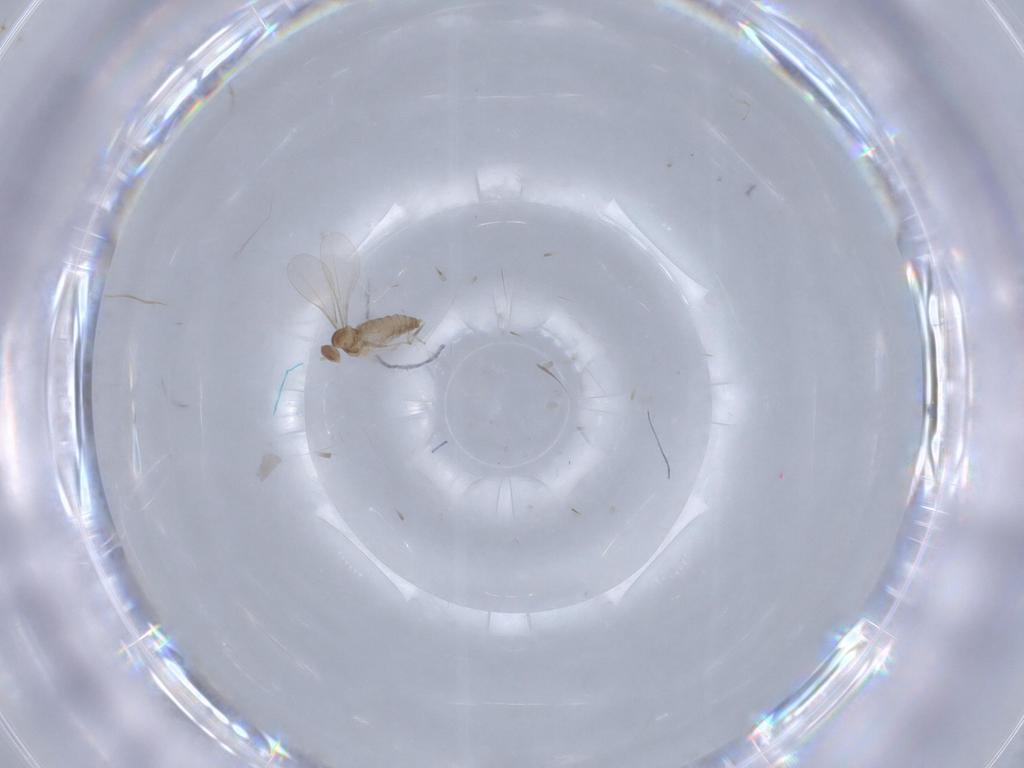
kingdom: Animalia
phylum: Arthropoda
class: Insecta
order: Diptera
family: Cecidomyiidae
